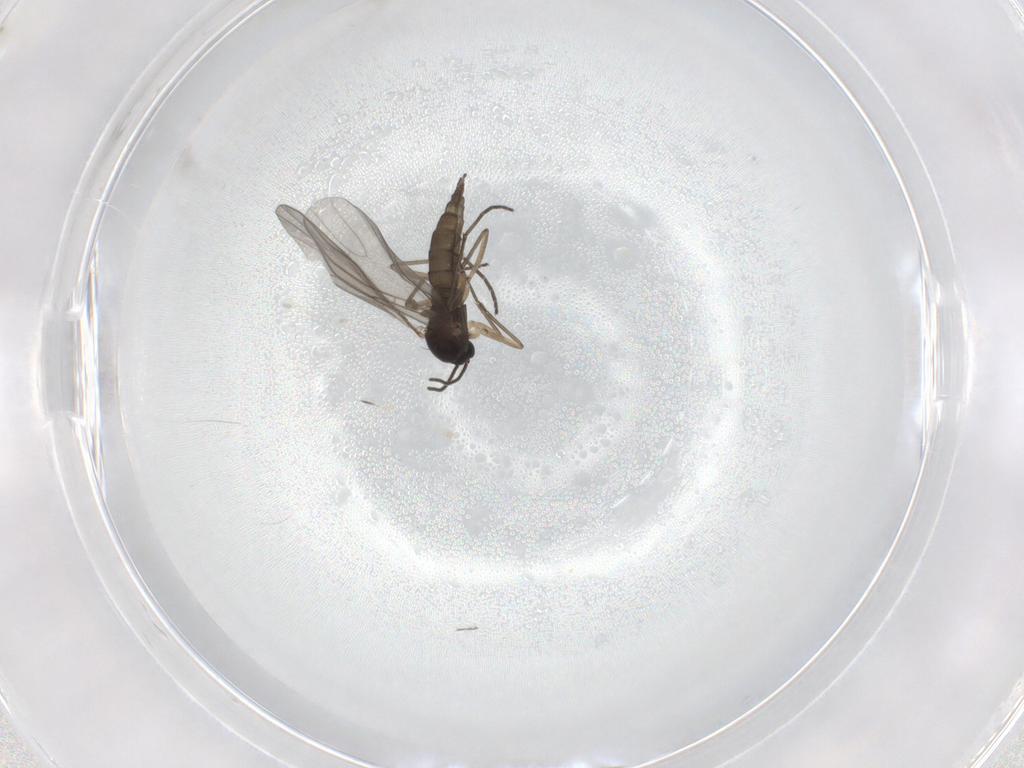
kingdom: Animalia
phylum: Arthropoda
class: Insecta
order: Diptera
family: Sciaridae
